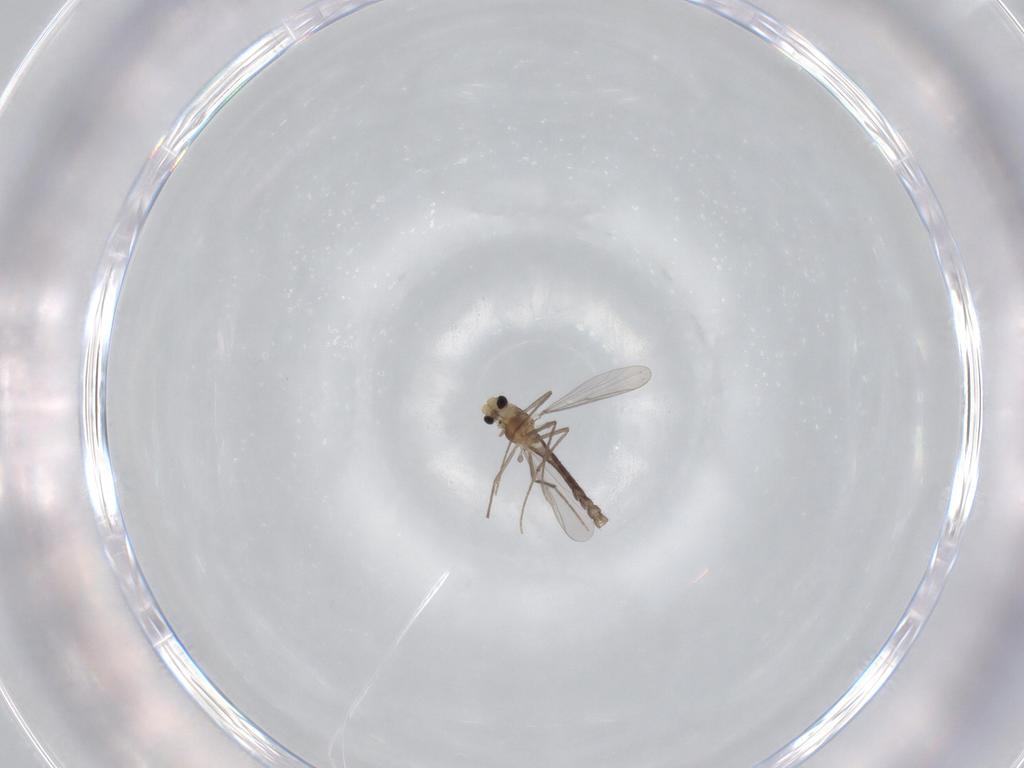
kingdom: Animalia
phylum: Arthropoda
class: Insecta
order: Diptera
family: Chironomidae
